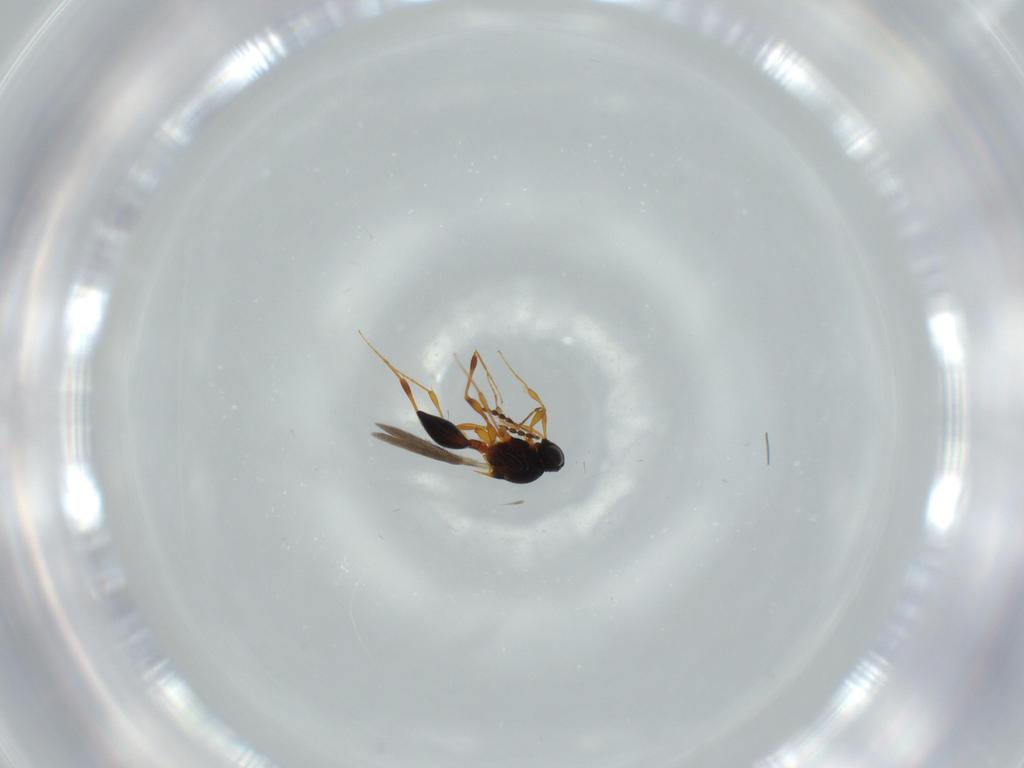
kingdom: Animalia
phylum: Arthropoda
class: Insecta
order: Hymenoptera
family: Platygastridae
